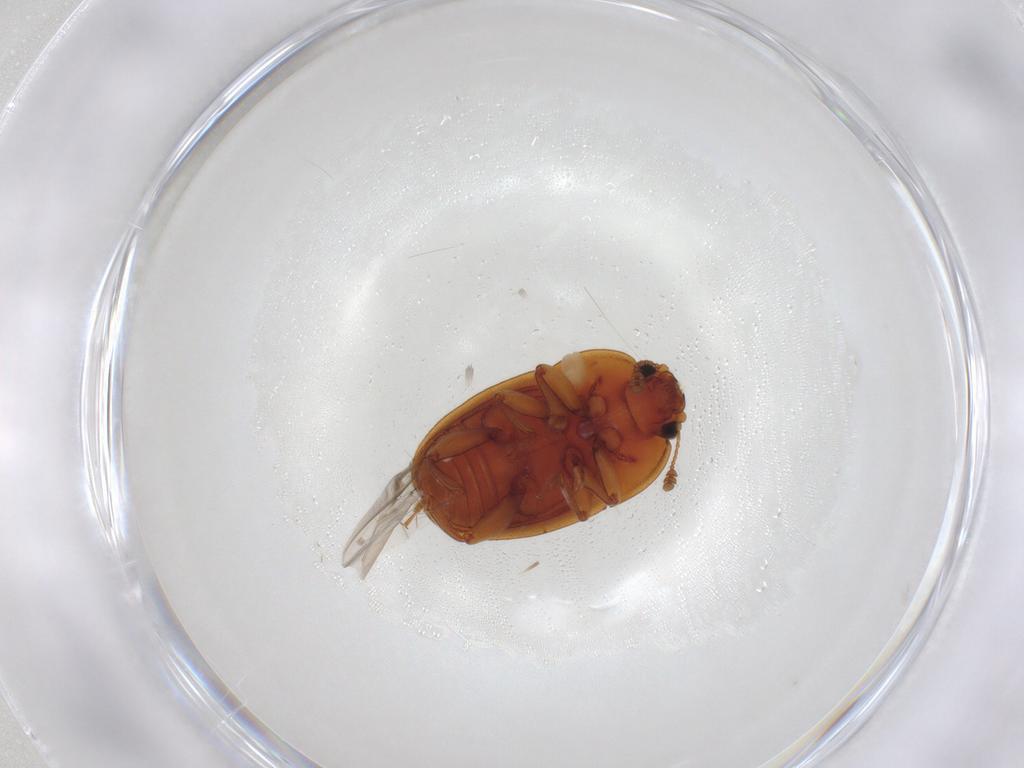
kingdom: Animalia
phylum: Arthropoda
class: Insecta
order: Coleoptera
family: Nitidulidae
